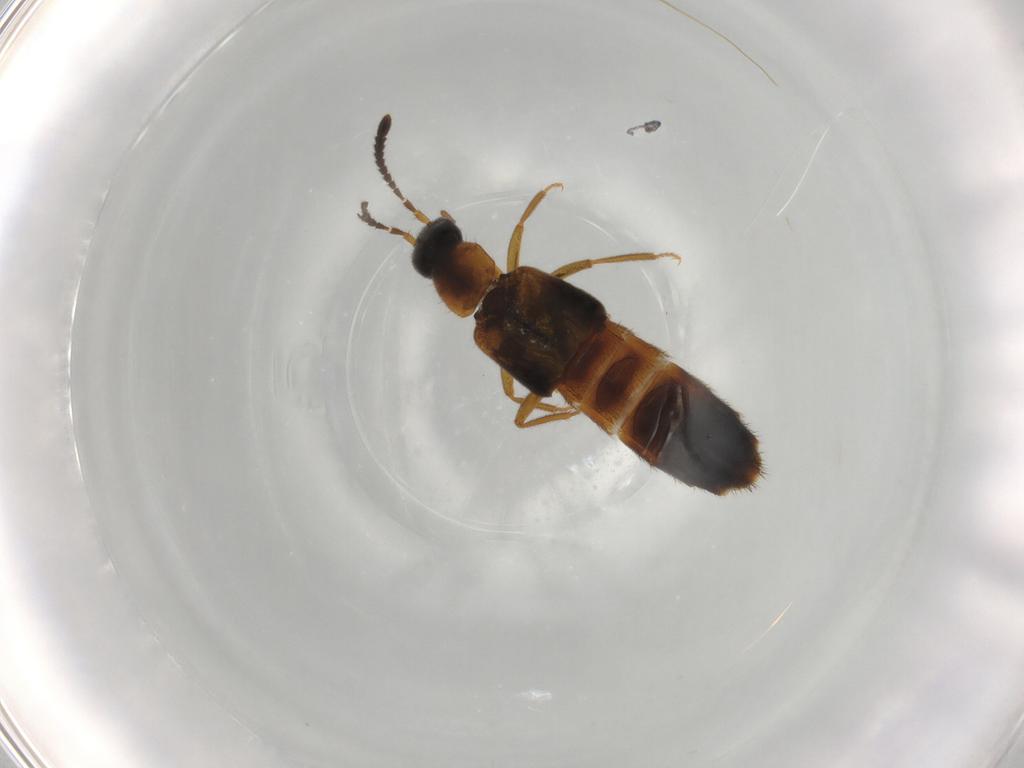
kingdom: Animalia
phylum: Arthropoda
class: Insecta
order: Coleoptera
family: Staphylinidae
